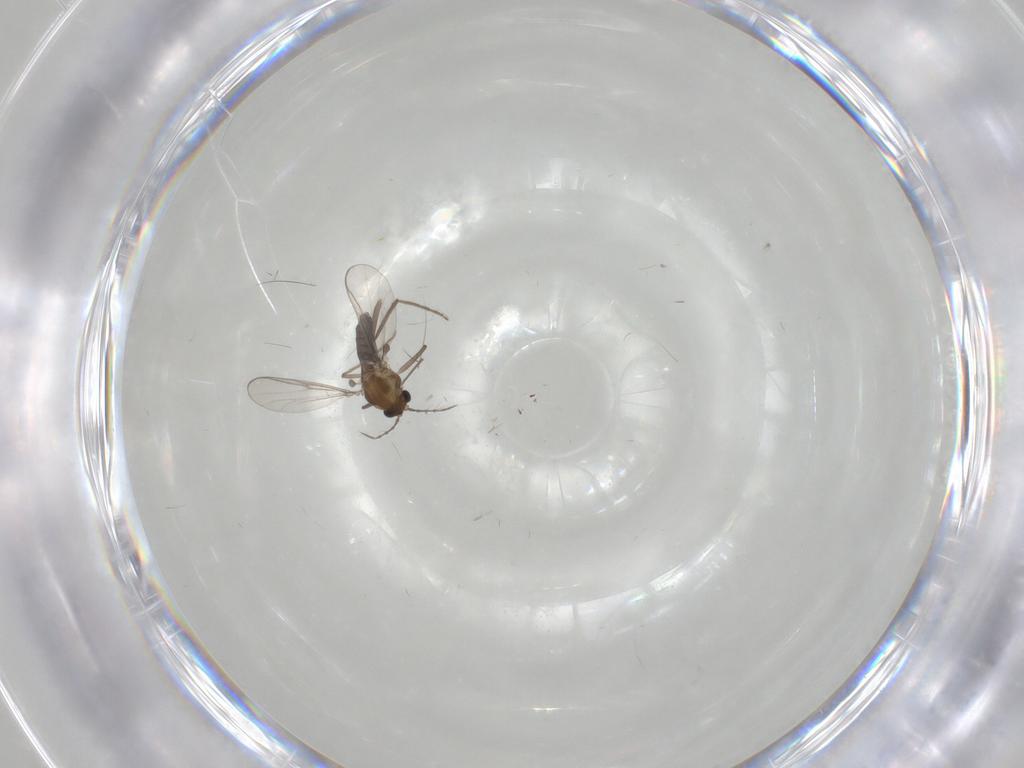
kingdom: Animalia
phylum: Arthropoda
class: Insecta
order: Diptera
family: Chironomidae
